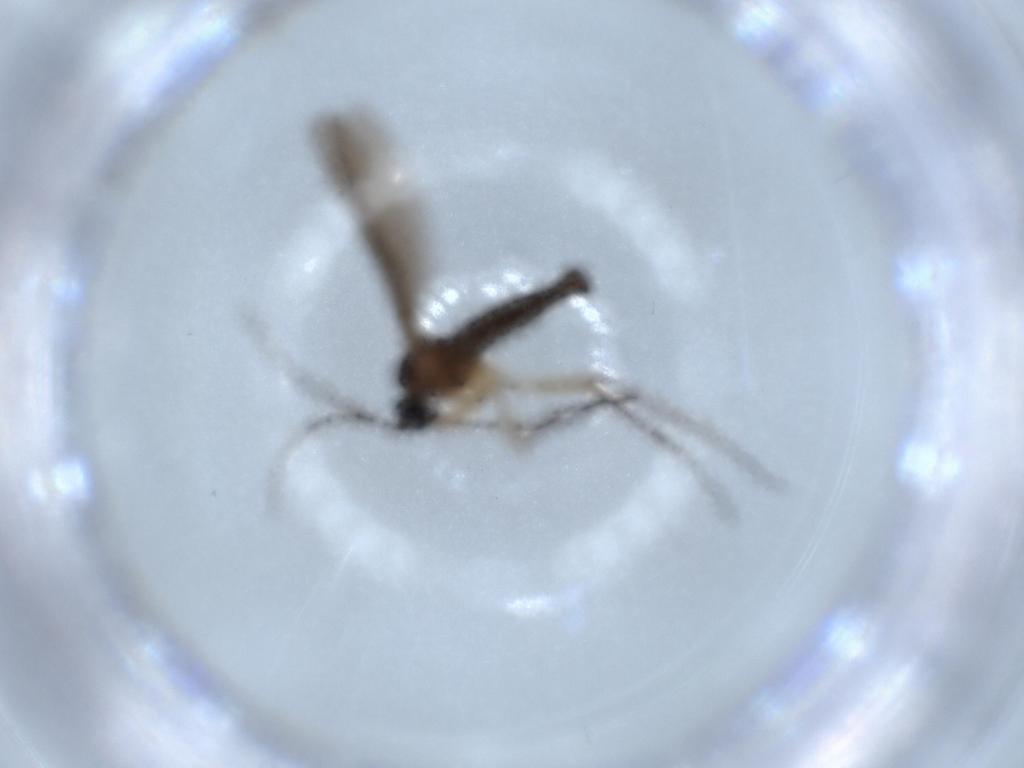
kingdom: Animalia
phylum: Arthropoda
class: Insecta
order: Diptera
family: Sciaridae
